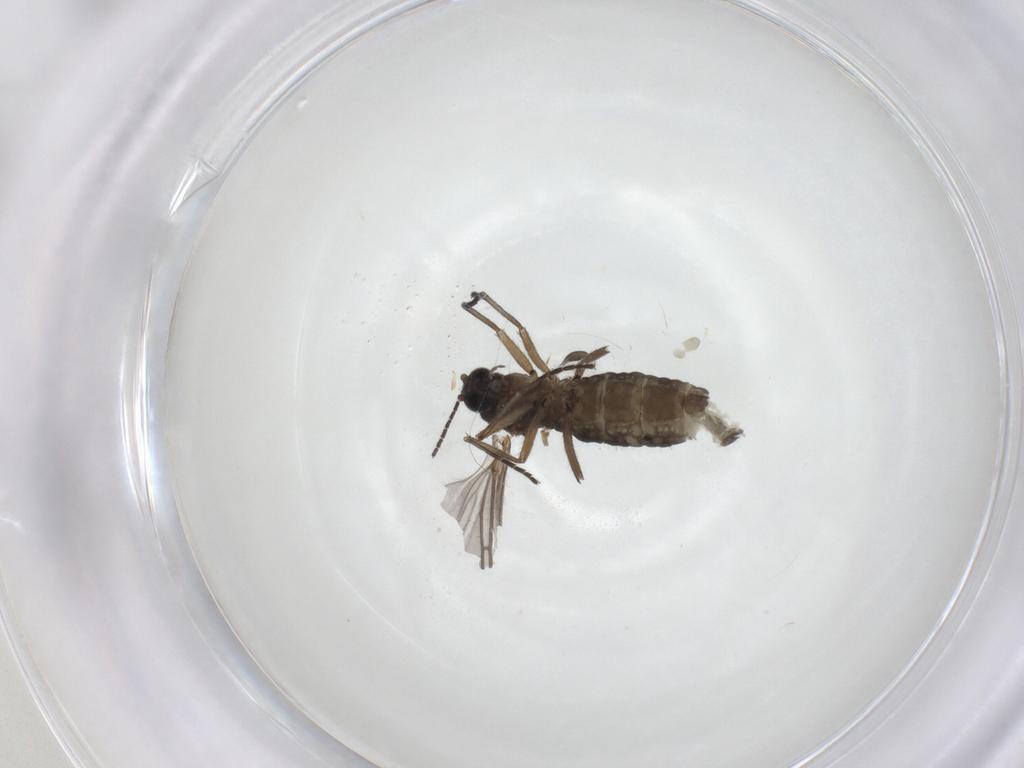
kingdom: Animalia
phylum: Arthropoda
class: Insecta
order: Diptera
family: Sciaridae
